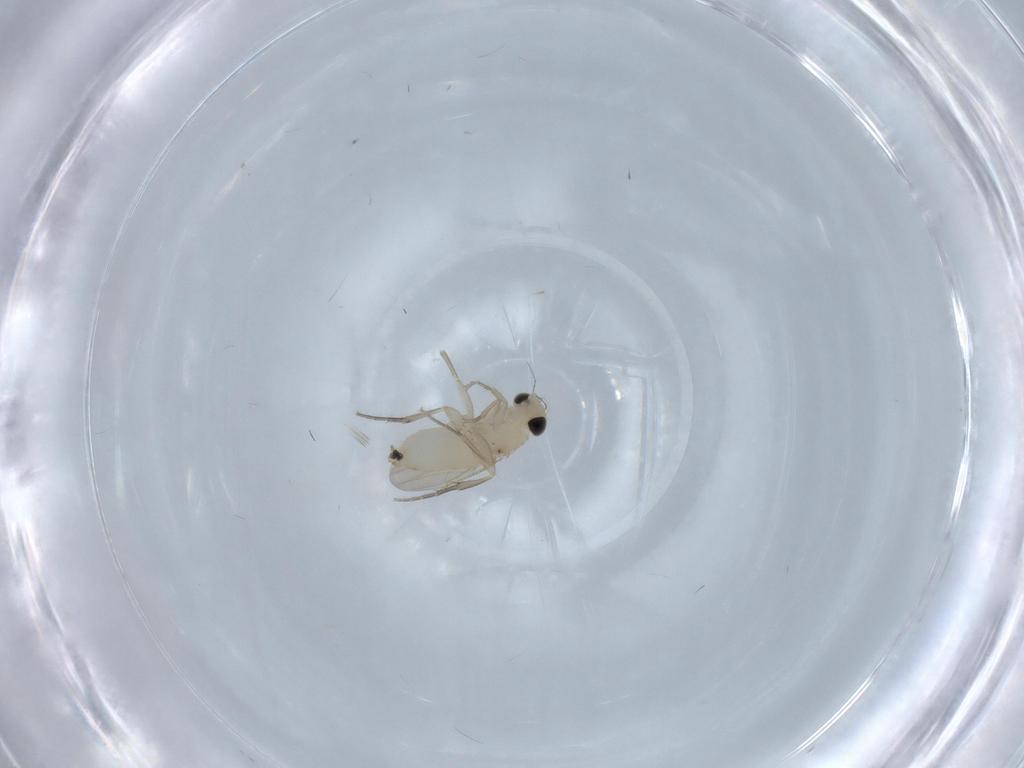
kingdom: Animalia
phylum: Arthropoda
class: Insecta
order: Diptera
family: Phoridae
